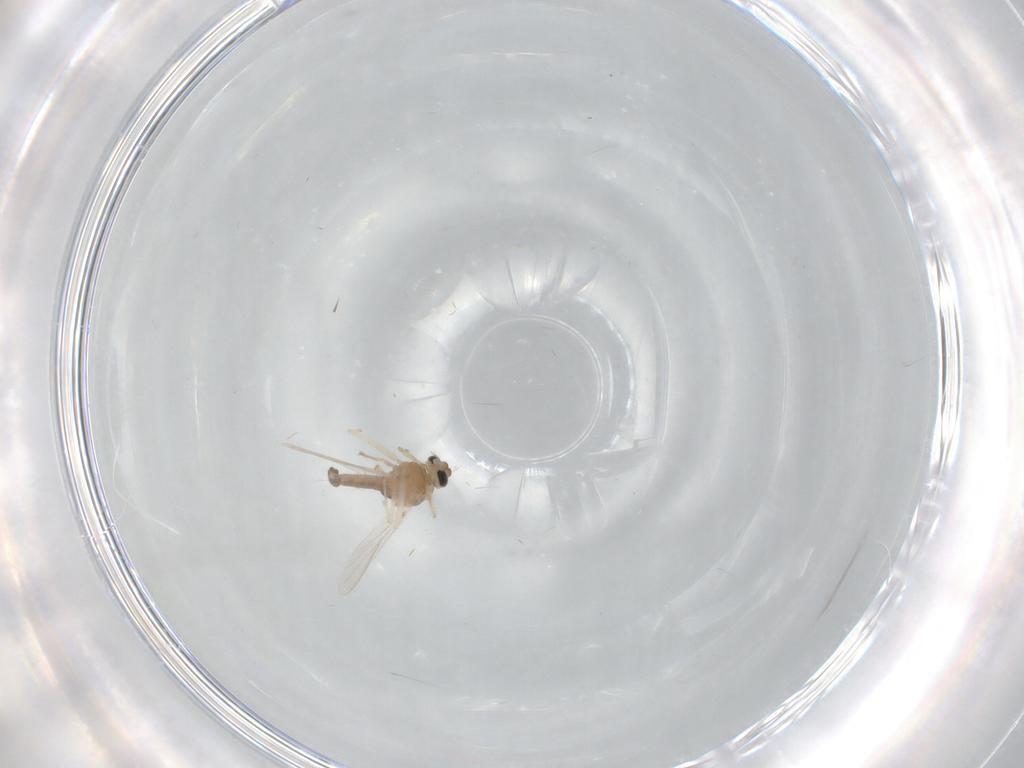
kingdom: Animalia
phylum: Arthropoda
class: Insecta
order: Diptera
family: Chironomidae
